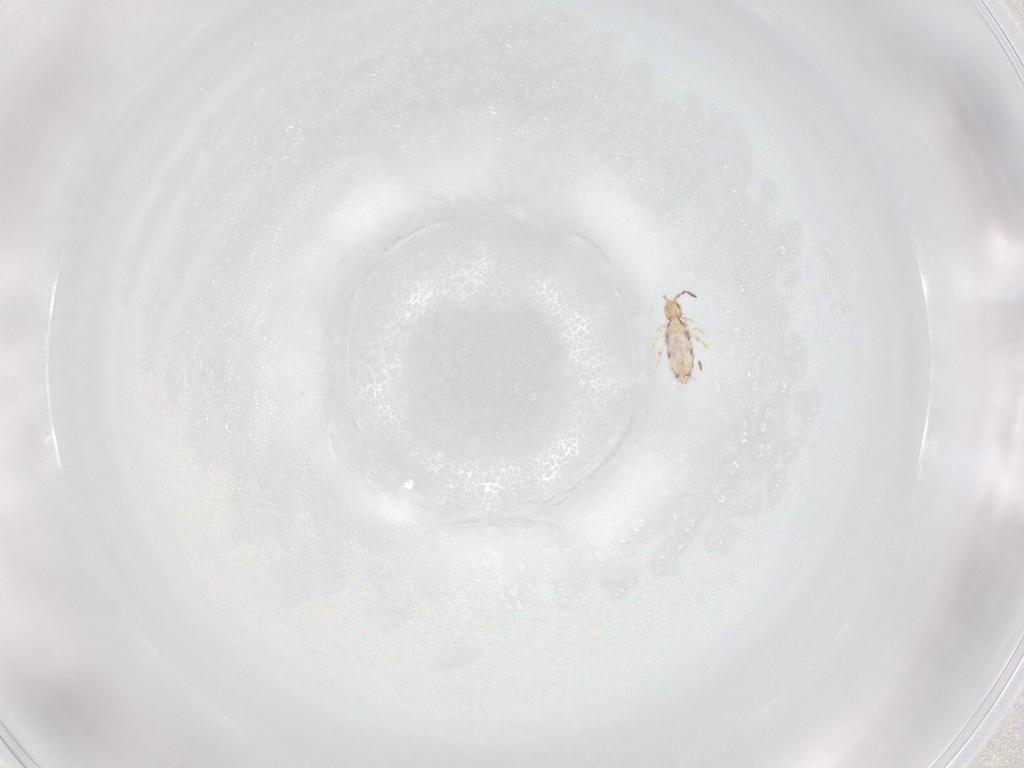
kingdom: Animalia
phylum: Arthropoda
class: Collembola
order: Entomobryomorpha
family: Entomobryidae
